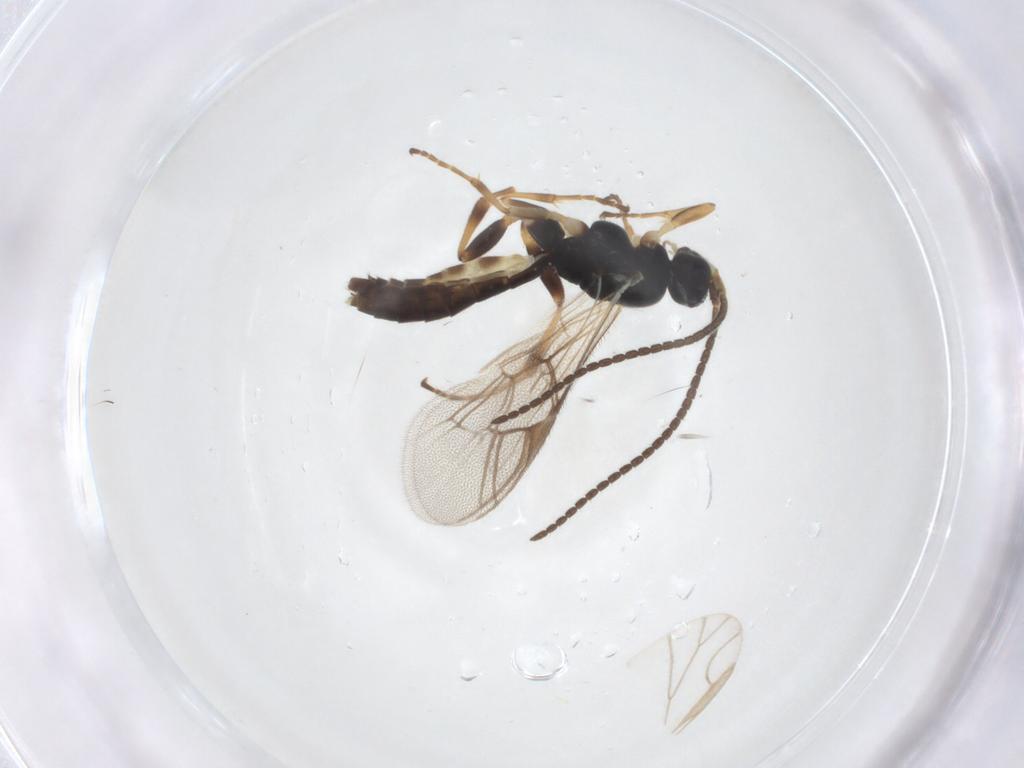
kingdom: Animalia
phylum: Arthropoda
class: Insecta
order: Hymenoptera
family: Ichneumonidae
